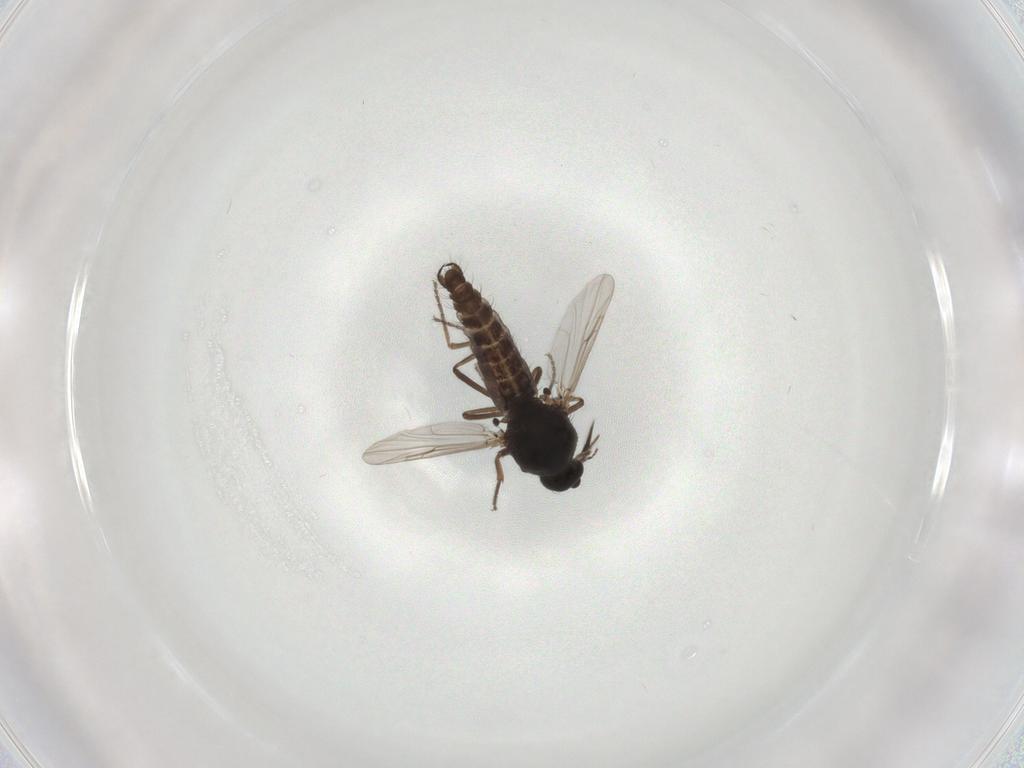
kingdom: Animalia
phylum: Arthropoda
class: Insecta
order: Diptera
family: Ceratopogonidae
